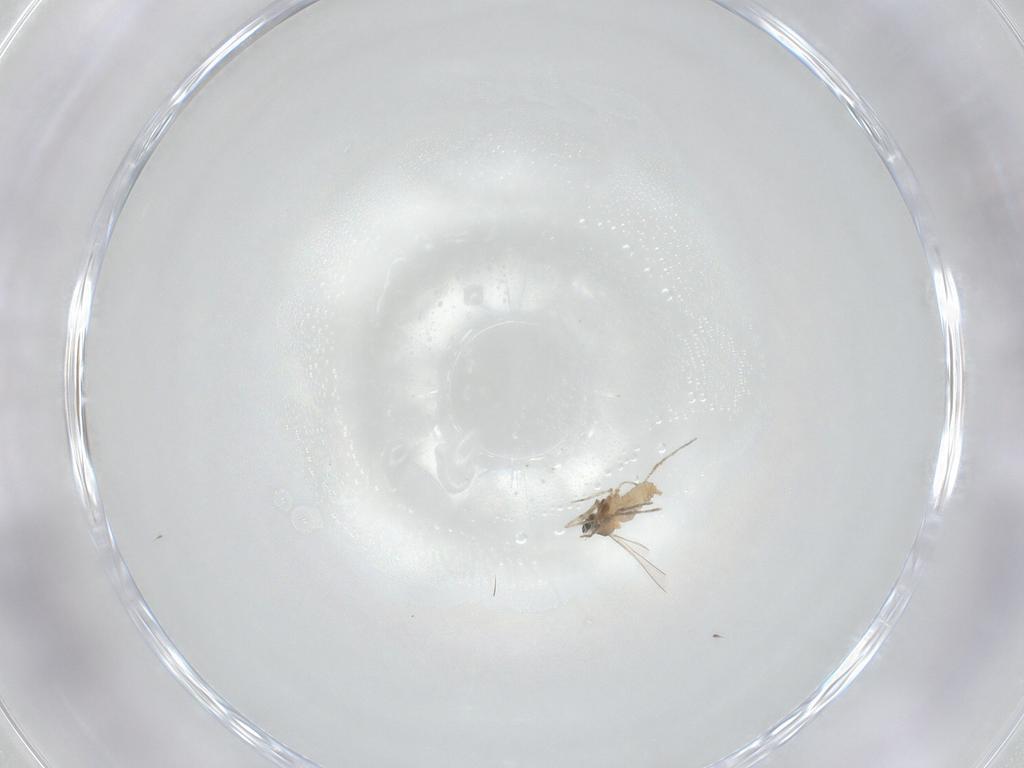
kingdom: Animalia
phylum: Arthropoda
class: Insecta
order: Diptera
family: Cecidomyiidae
